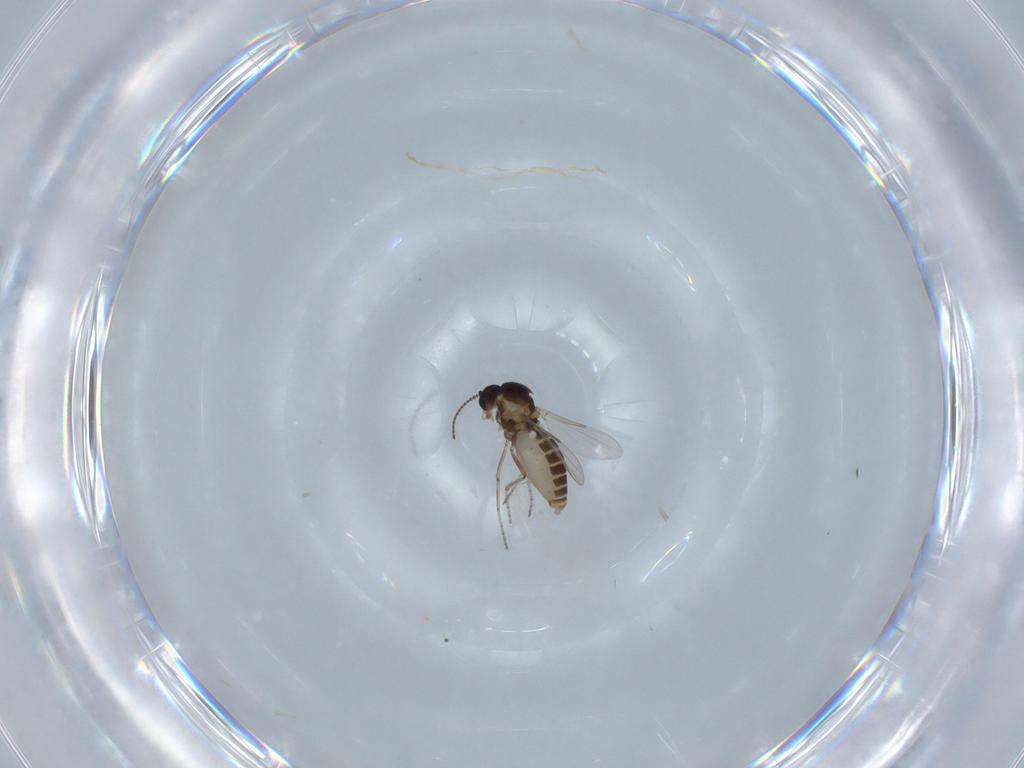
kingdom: Animalia
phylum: Arthropoda
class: Insecta
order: Diptera
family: Ceratopogonidae
